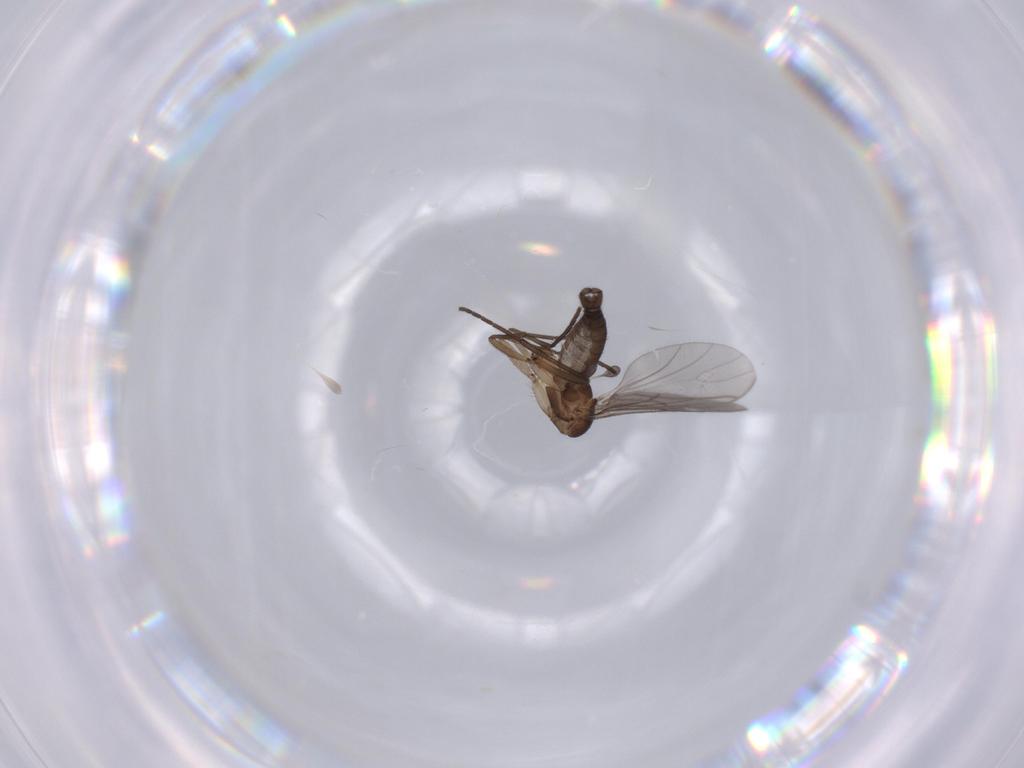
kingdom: Animalia
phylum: Arthropoda
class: Insecta
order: Diptera
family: Sciaridae
